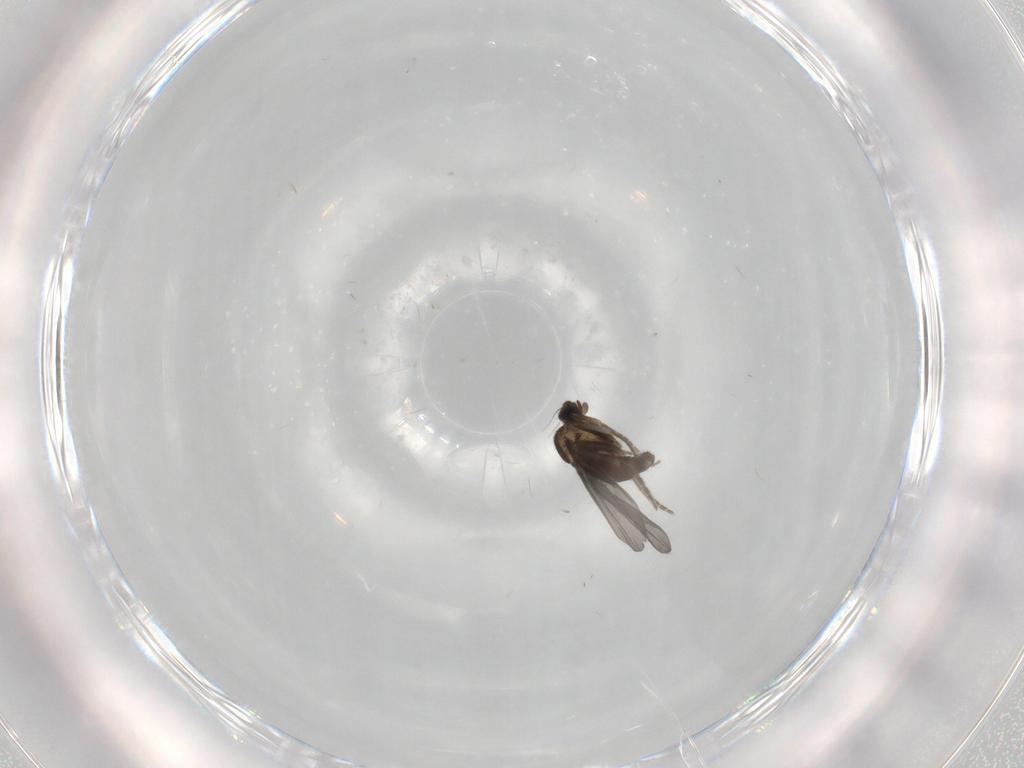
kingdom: Animalia
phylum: Arthropoda
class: Insecta
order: Diptera
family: Phoridae
